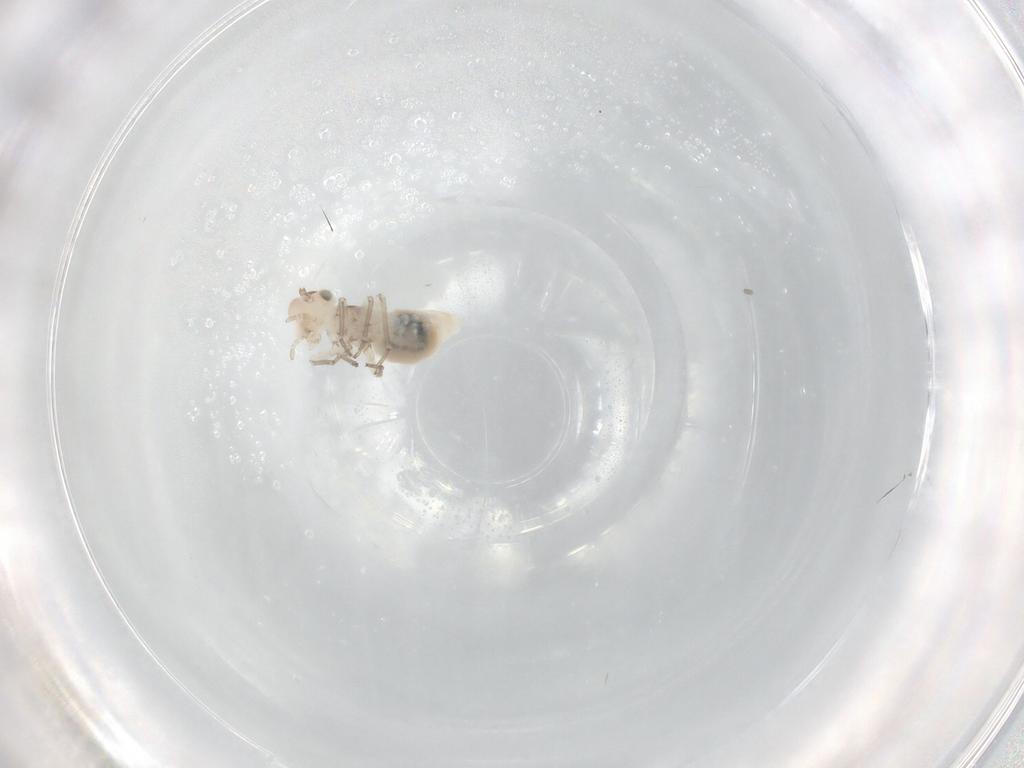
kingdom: Animalia
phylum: Arthropoda
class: Insecta
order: Psocodea
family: Caeciliusidae
